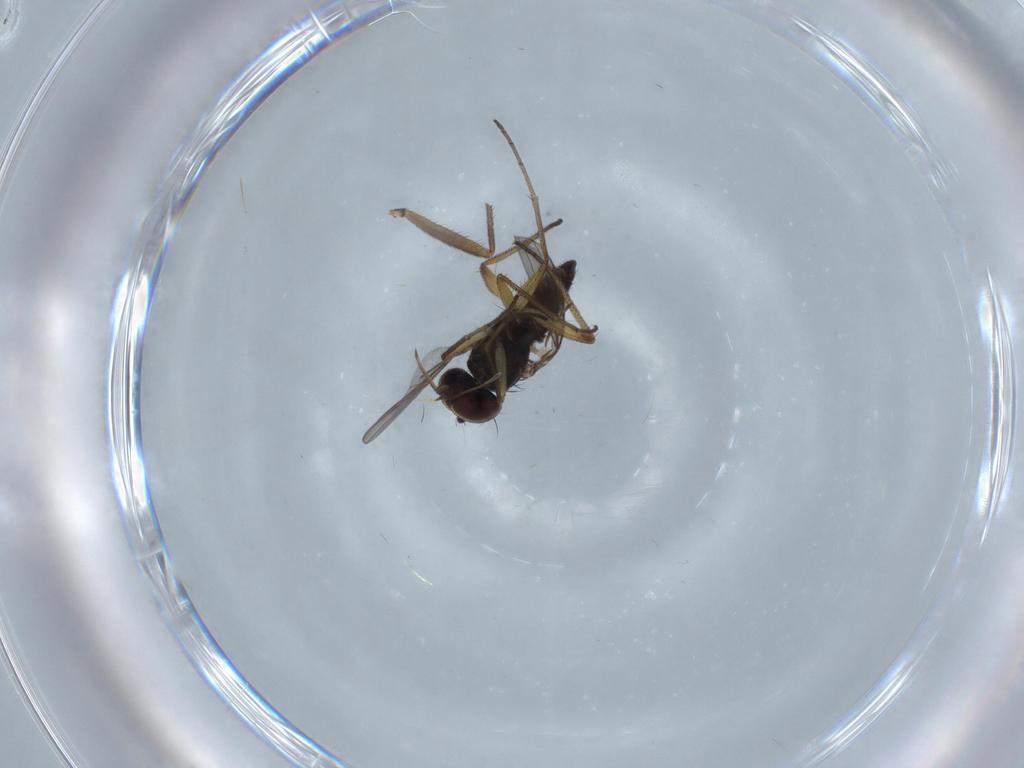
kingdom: Animalia
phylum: Arthropoda
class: Insecta
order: Diptera
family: Dolichopodidae
